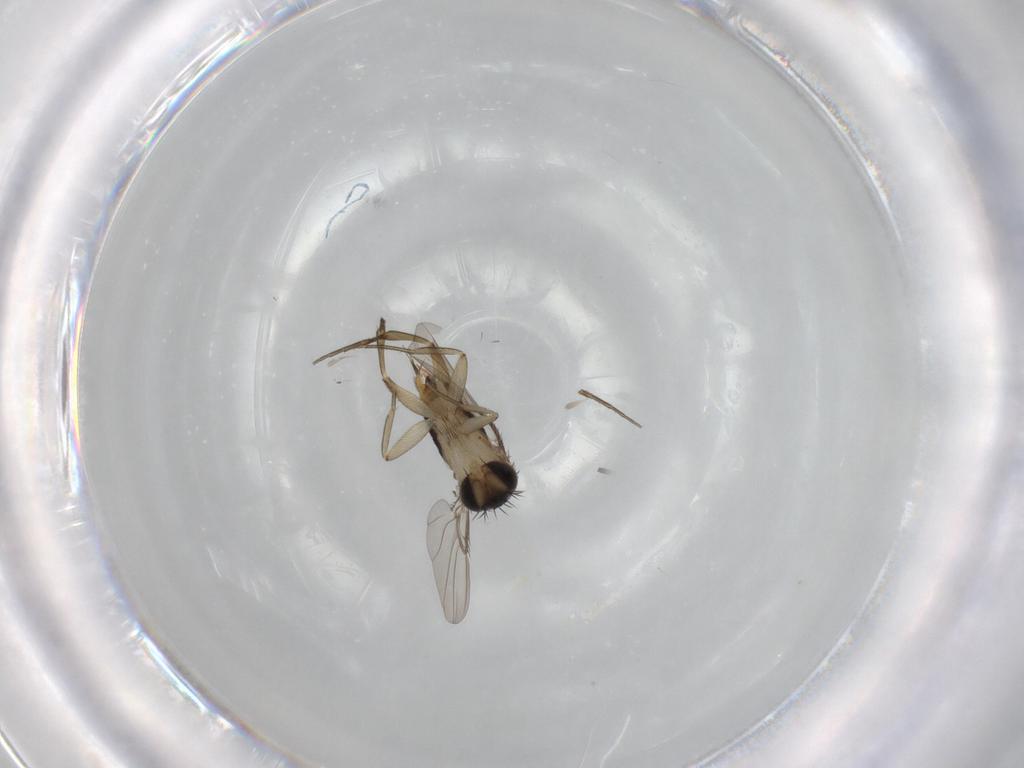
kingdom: Animalia
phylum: Arthropoda
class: Insecta
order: Diptera
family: Phoridae
